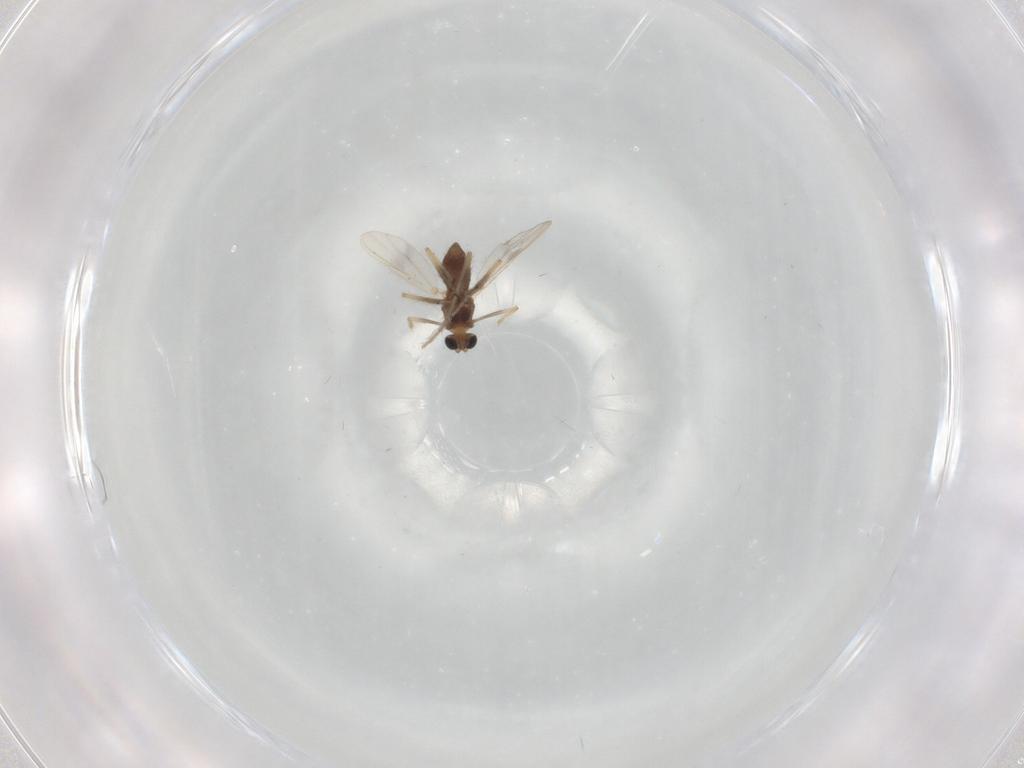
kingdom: Animalia
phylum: Arthropoda
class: Insecta
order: Diptera
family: Chironomidae
